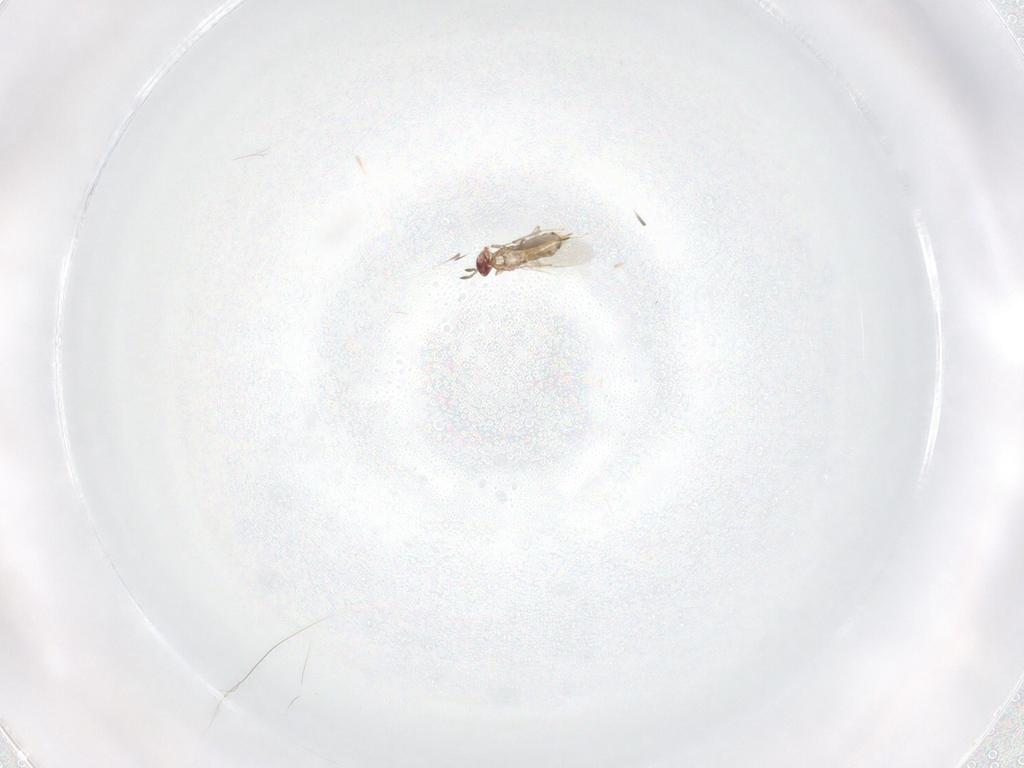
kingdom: Animalia
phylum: Arthropoda
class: Insecta
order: Hymenoptera
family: Aphelinidae
